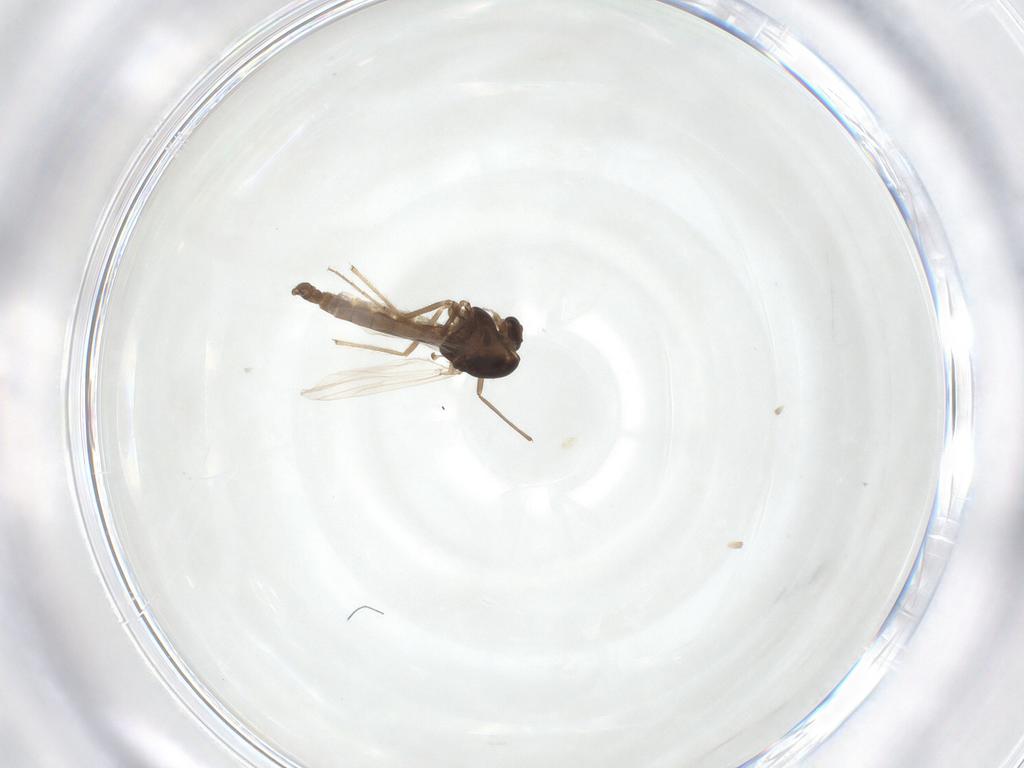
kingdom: Animalia
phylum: Arthropoda
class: Insecta
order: Diptera
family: Chironomidae
